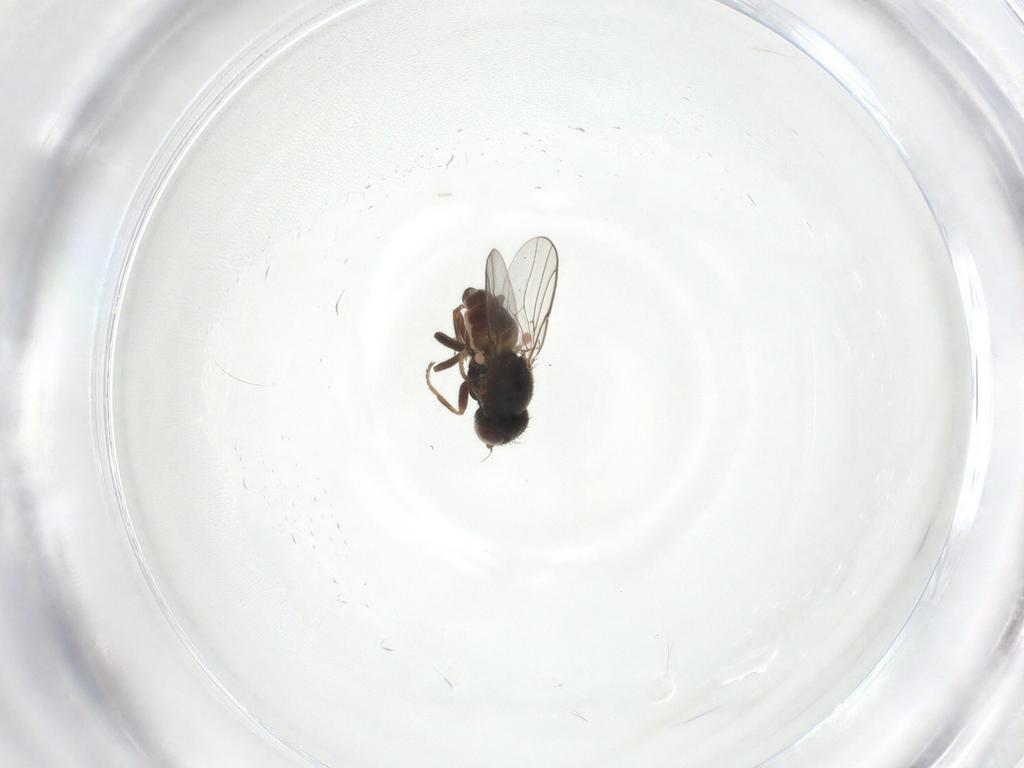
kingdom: Animalia
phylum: Arthropoda
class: Insecta
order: Diptera
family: Chloropidae
